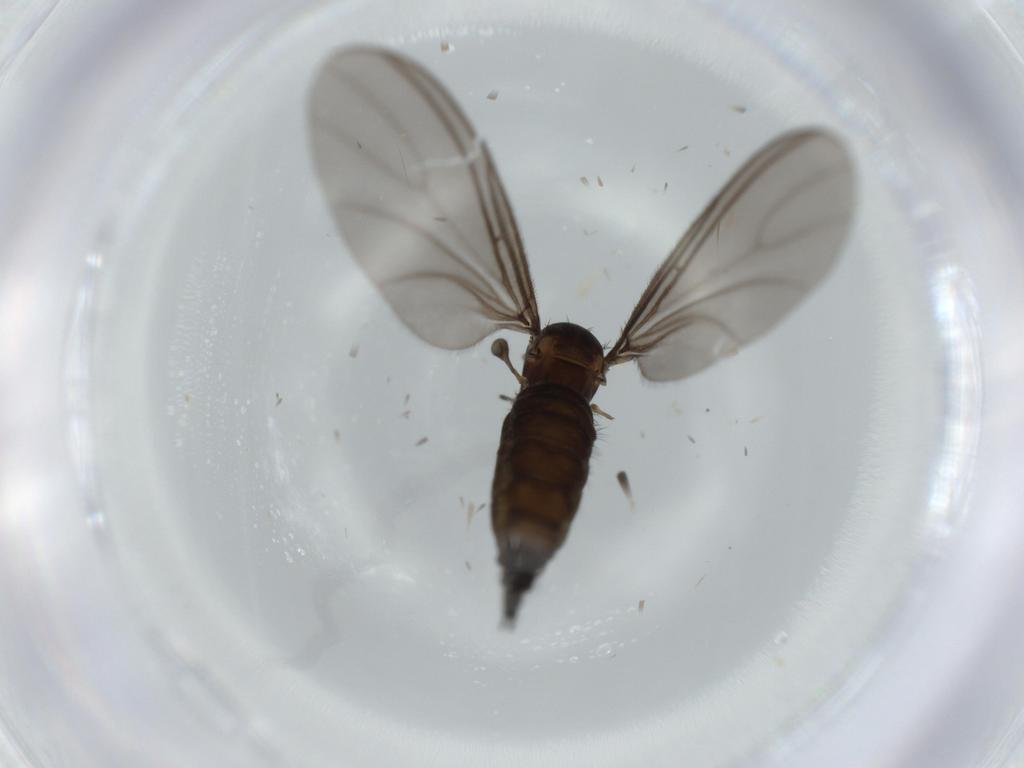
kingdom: Animalia
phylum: Arthropoda
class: Insecta
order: Diptera
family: Sciaridae
